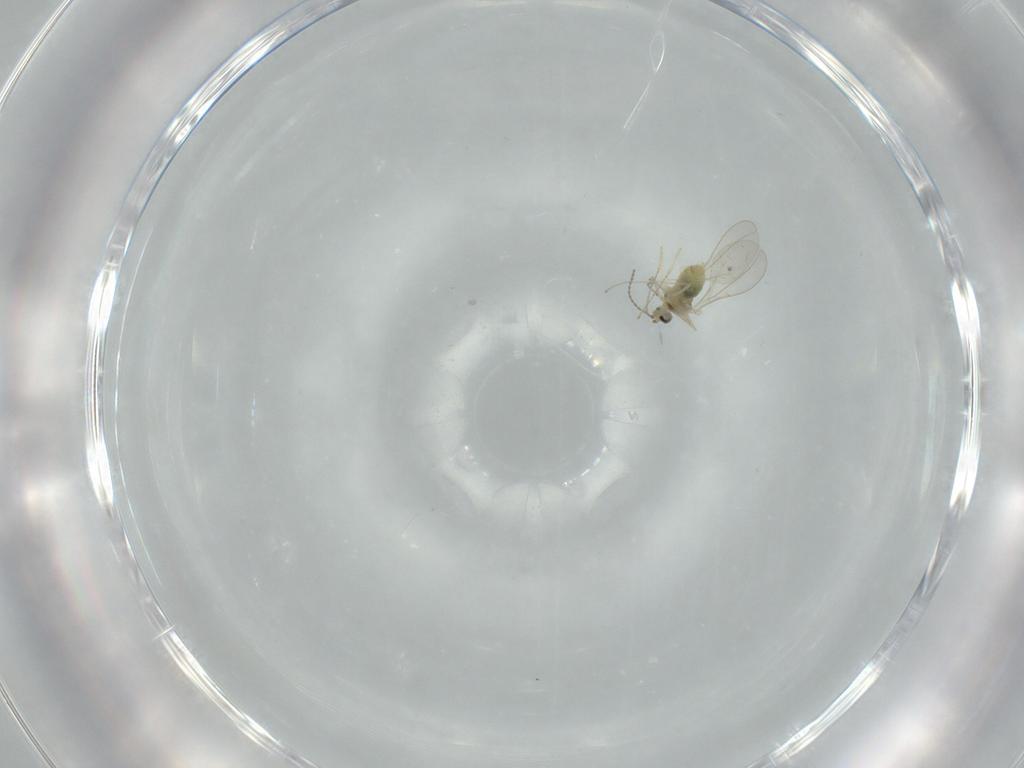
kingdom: Animalia
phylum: Arthropoda
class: Insecta
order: Diptera
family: Cecidomyiidae
